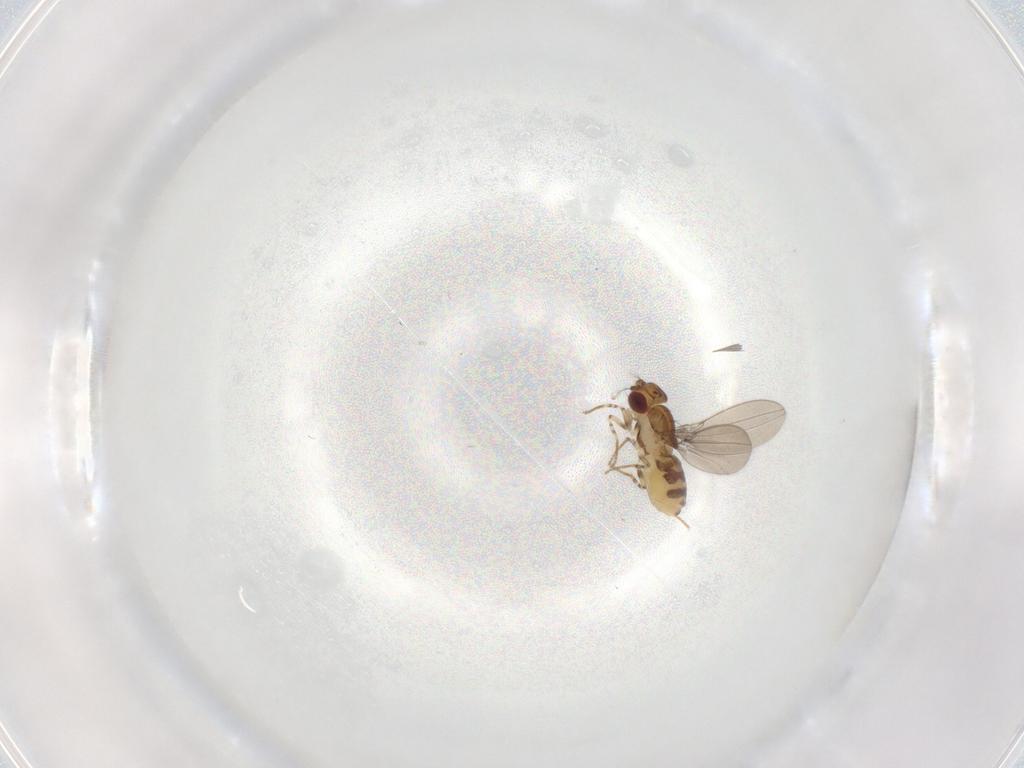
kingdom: Animalia
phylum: Arthropoda
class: Insecta
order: Diptera
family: Asteiidae
